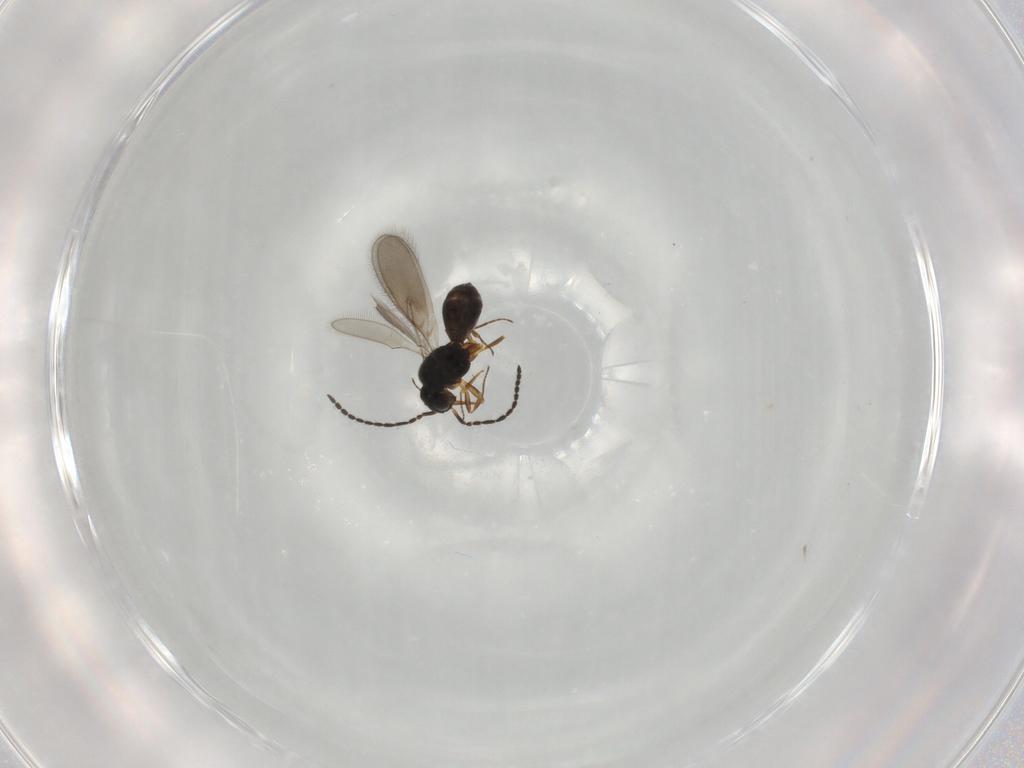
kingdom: Animalia
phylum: Arthropoda
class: Insecta
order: Hymenoptera
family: Scelionidae
